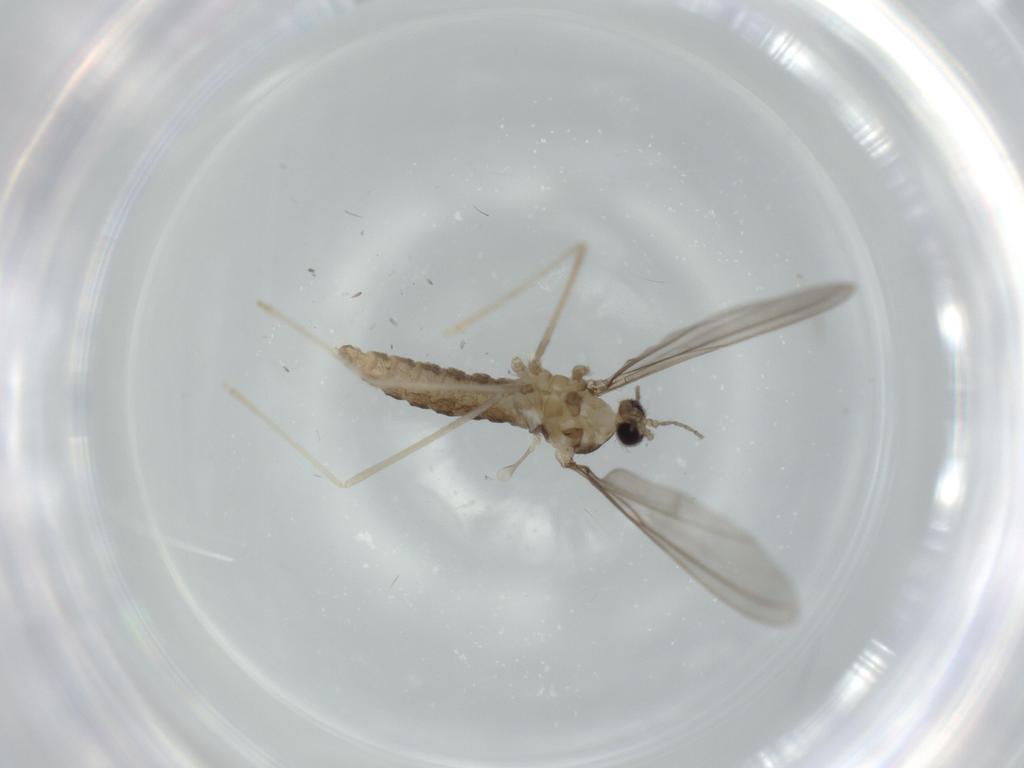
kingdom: Animalia
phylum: Arthropoda
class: Insecta
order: Diptera
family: Cecidomyiidae
